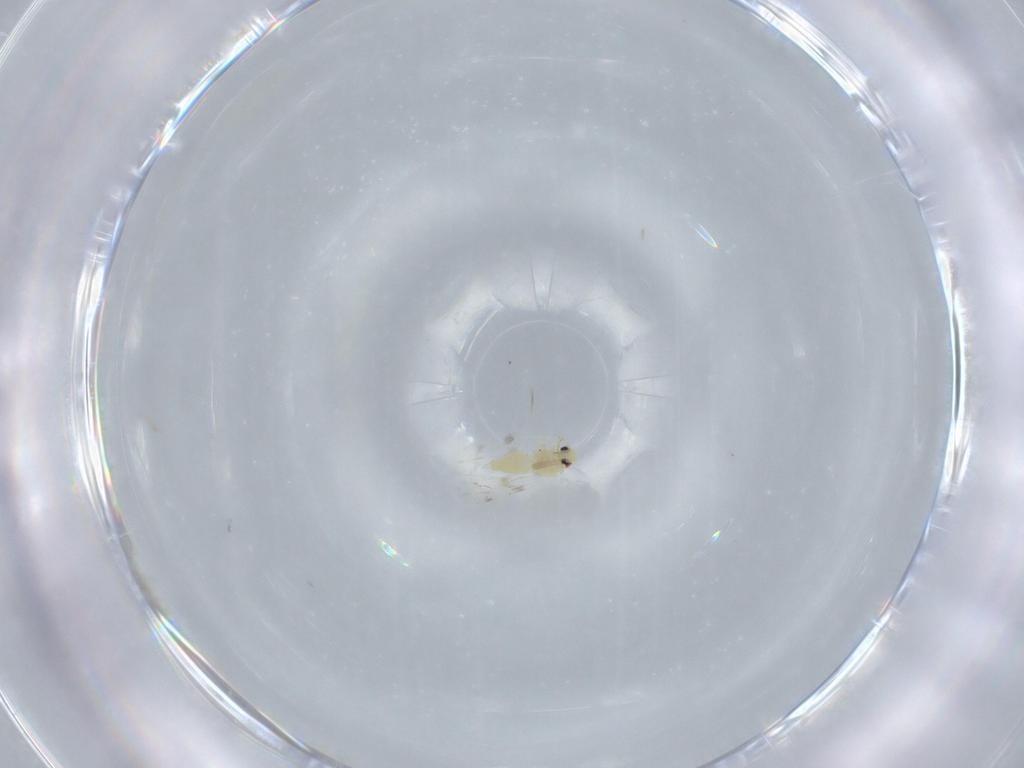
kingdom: Animalia
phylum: Arthropoda
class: Insecta
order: Hemiptera
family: Aleyrodidae
